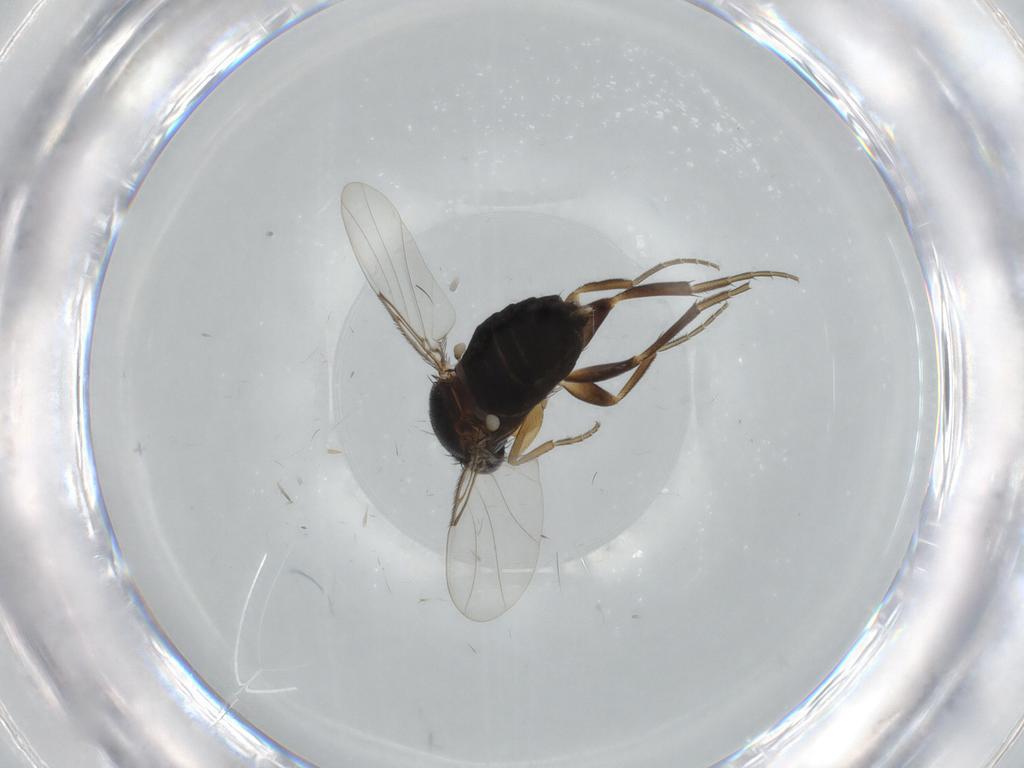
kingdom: Animalia
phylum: Arthropoda
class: Insecta
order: Diptera
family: Phoridae
